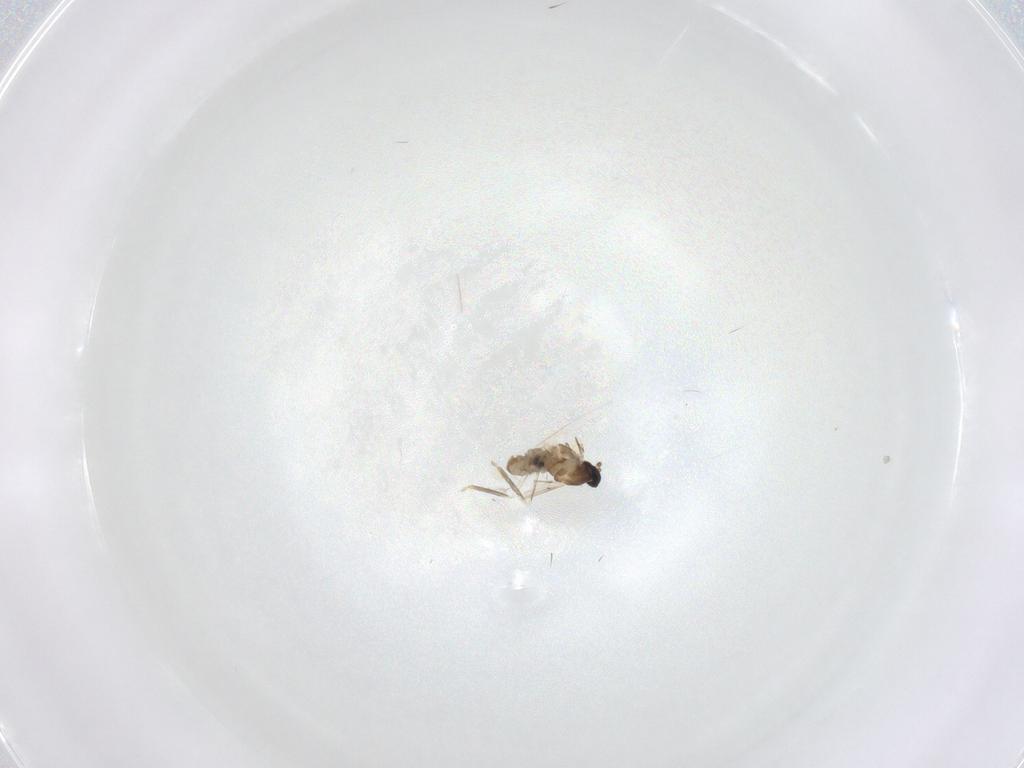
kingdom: Animalia
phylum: Arthropoda
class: Insecta
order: Diptera
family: Cecidomyiidae
